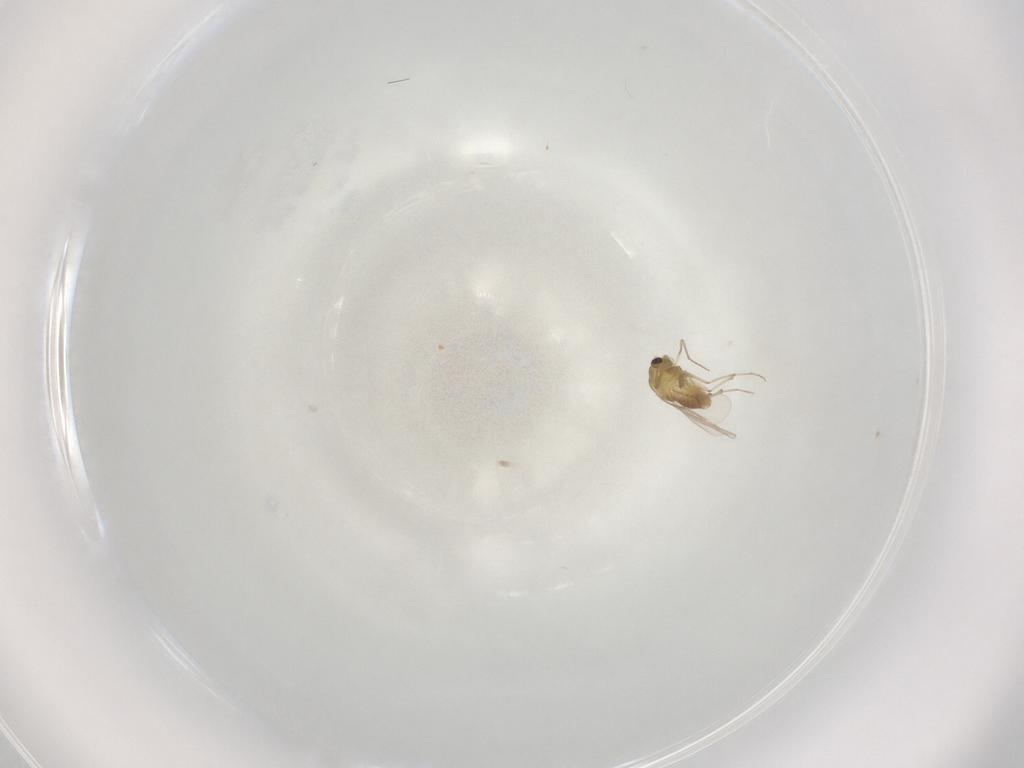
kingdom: Animalia
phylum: Arthropoda
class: Insecta
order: Diptera
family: Chironomidae
